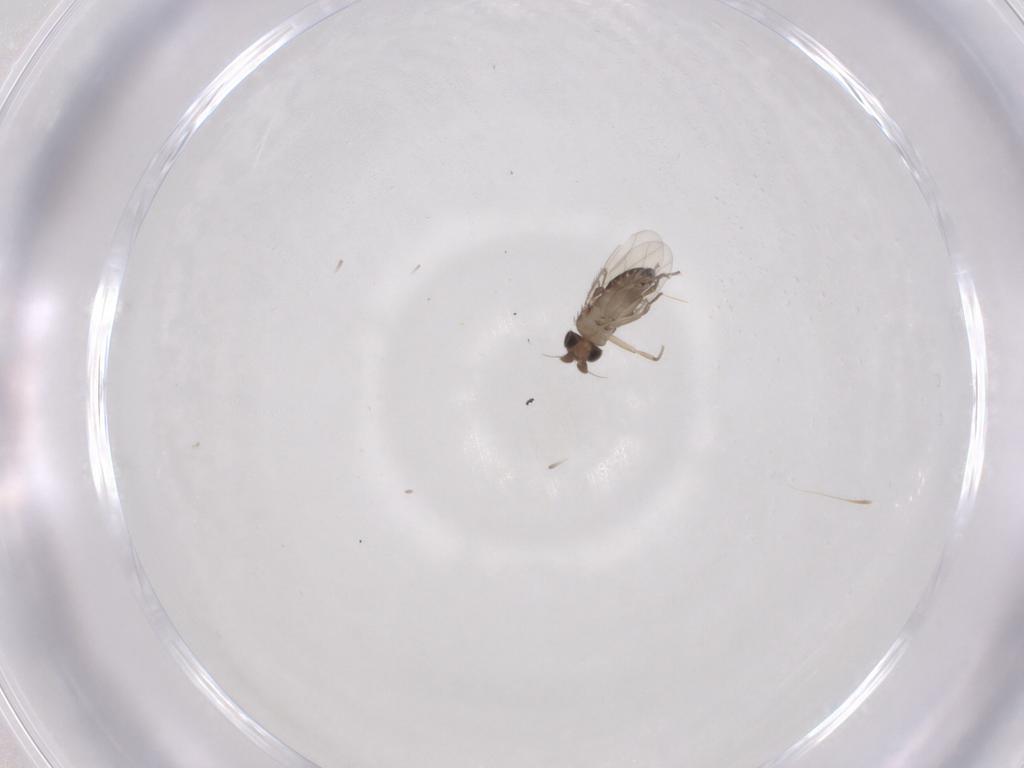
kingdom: Animalia
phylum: Arthropoda
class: Insecta
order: Diptera
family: Phoridae
